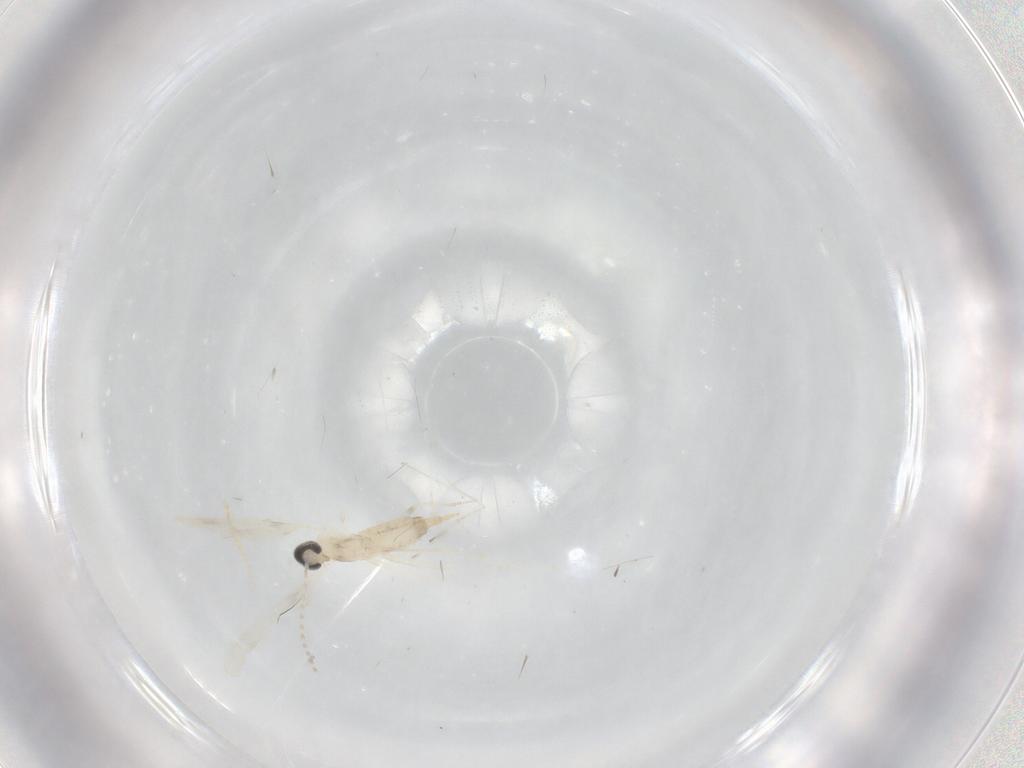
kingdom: Animalia
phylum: Arthropoda
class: Insecta
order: Diptera
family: Cecidomyiidae
